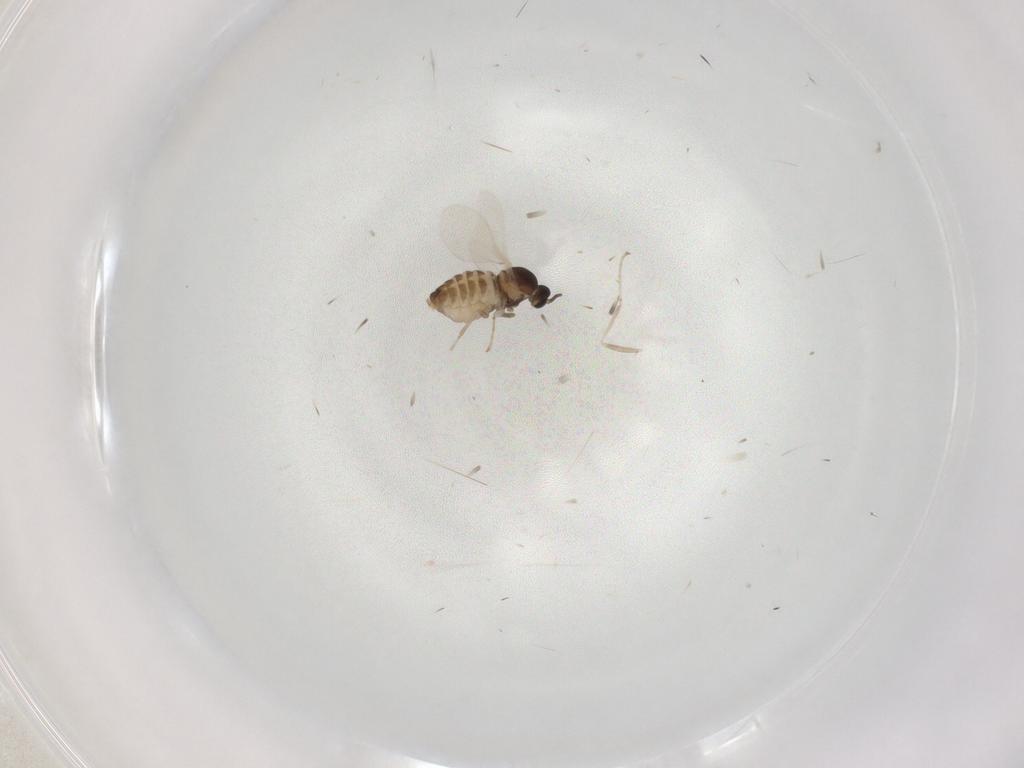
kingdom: Animalia
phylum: Arthropoda
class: Insecta
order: Diptera
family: Cecidomyiidae
